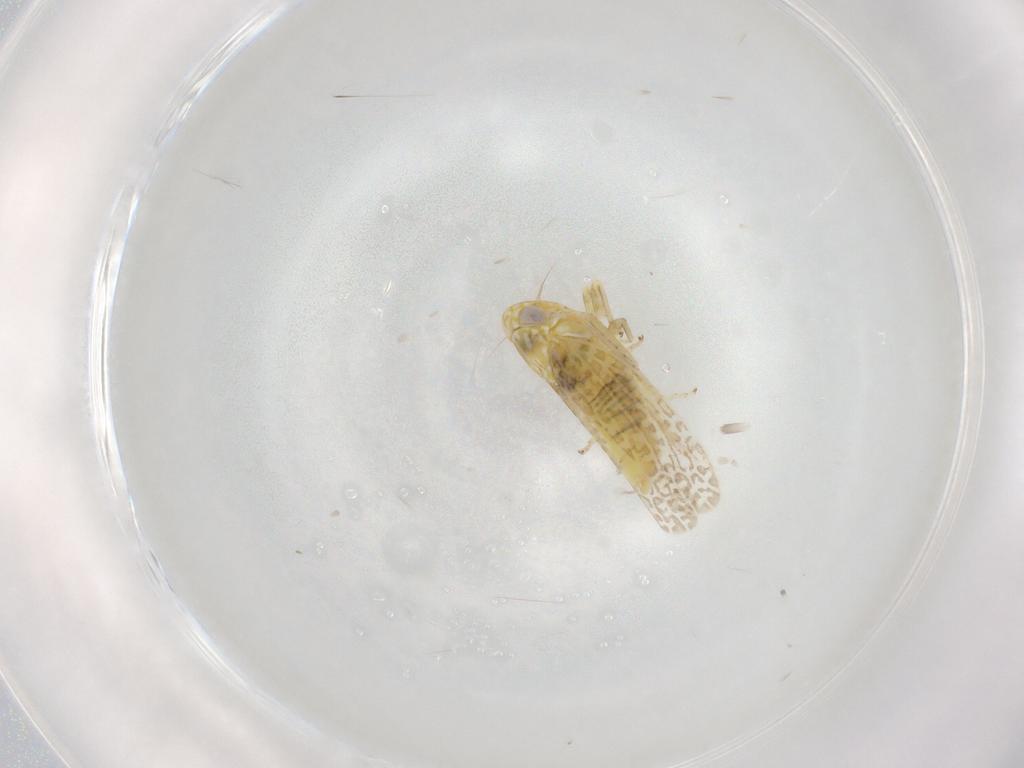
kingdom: Animalia
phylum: Arthropoda
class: Insecta
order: Hemiptera
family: Cicadellidae
